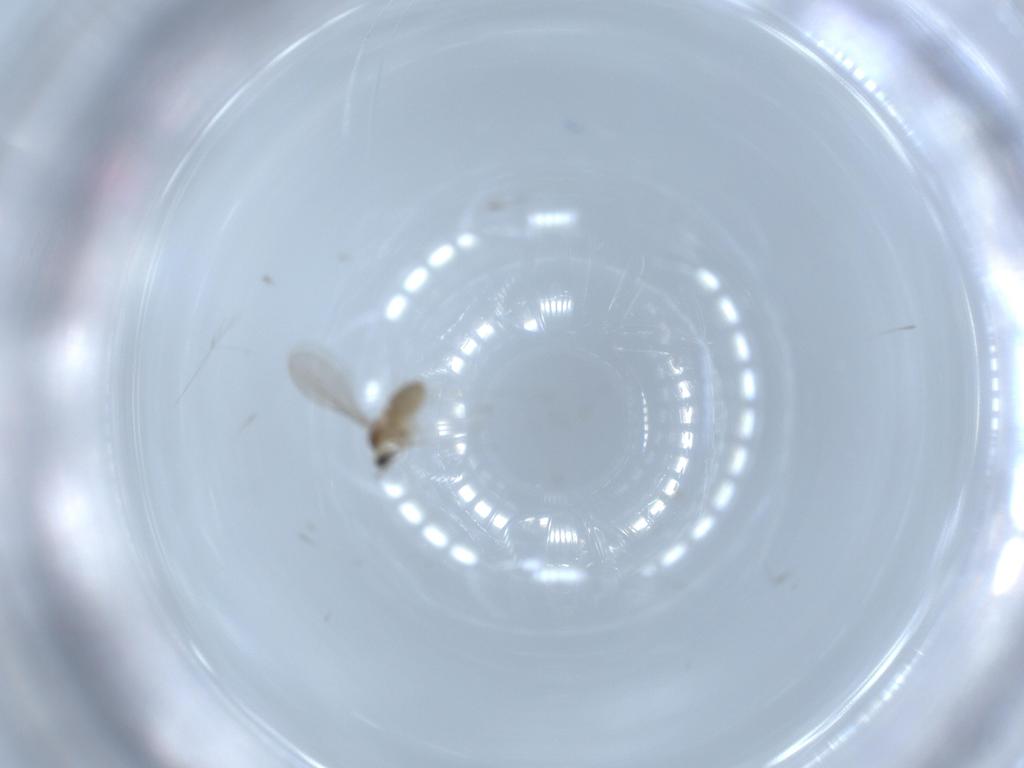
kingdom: Animalia
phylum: Arthropoda
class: Insecta
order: Diptera
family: Cecidomyiidae
